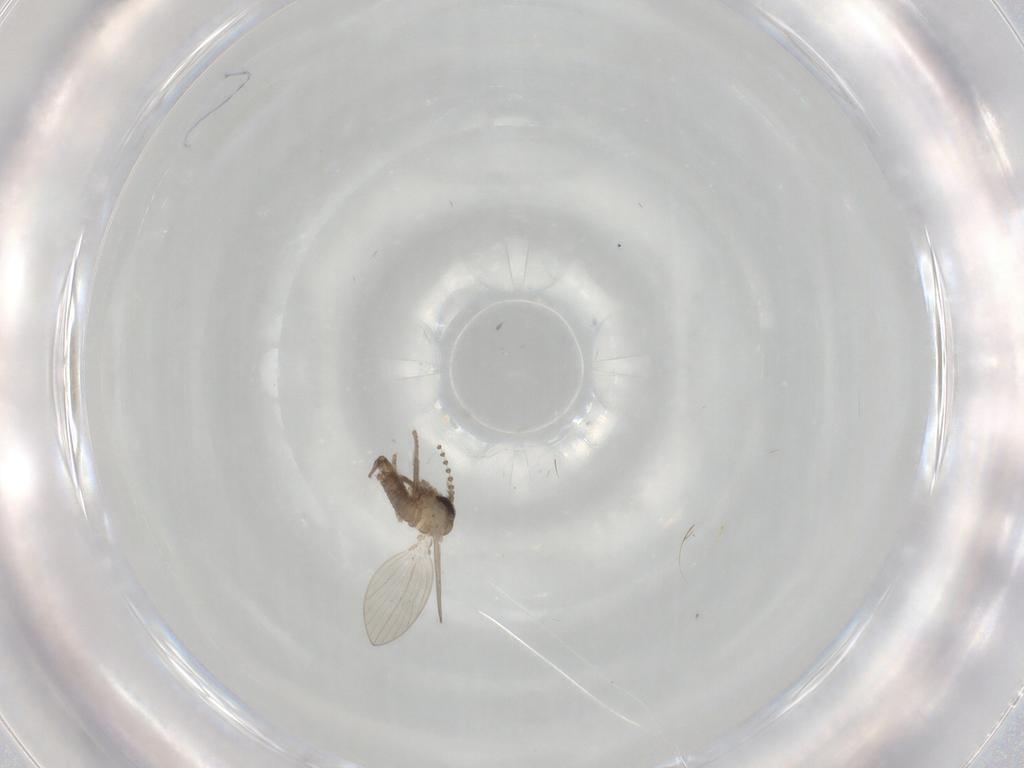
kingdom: Animalia
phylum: Arthropoda
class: Insecta
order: Diptera
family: Psychodidae
